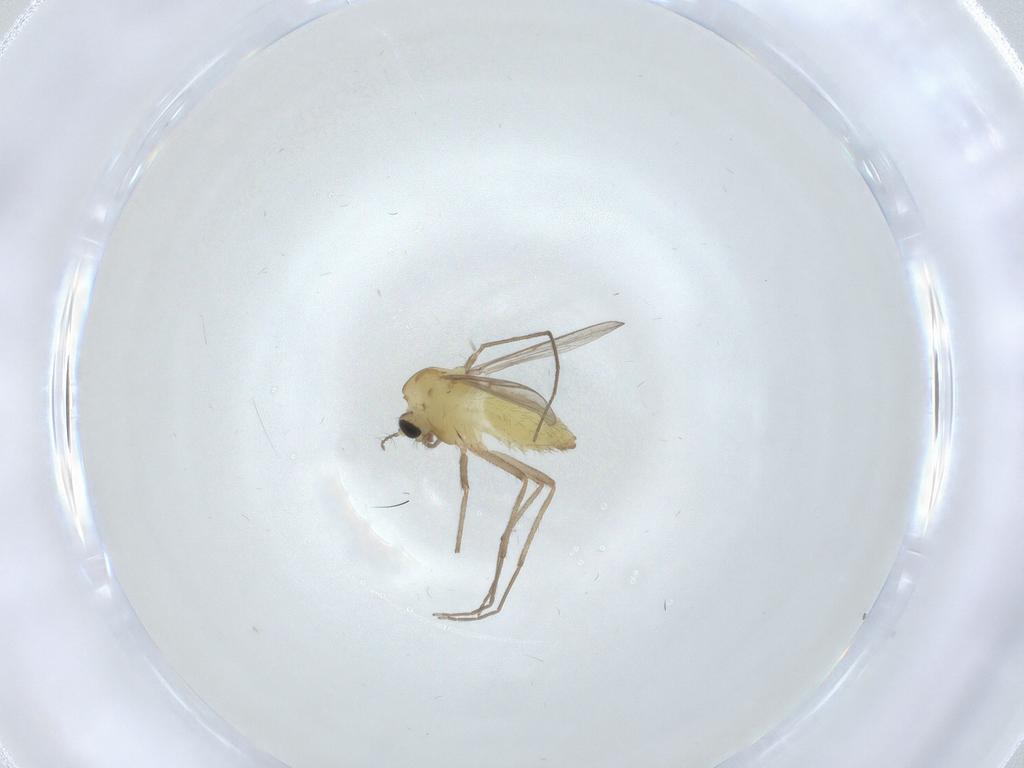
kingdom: Animalia
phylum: Arthropoda
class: Insecta
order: Diptera
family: Chironomidae
